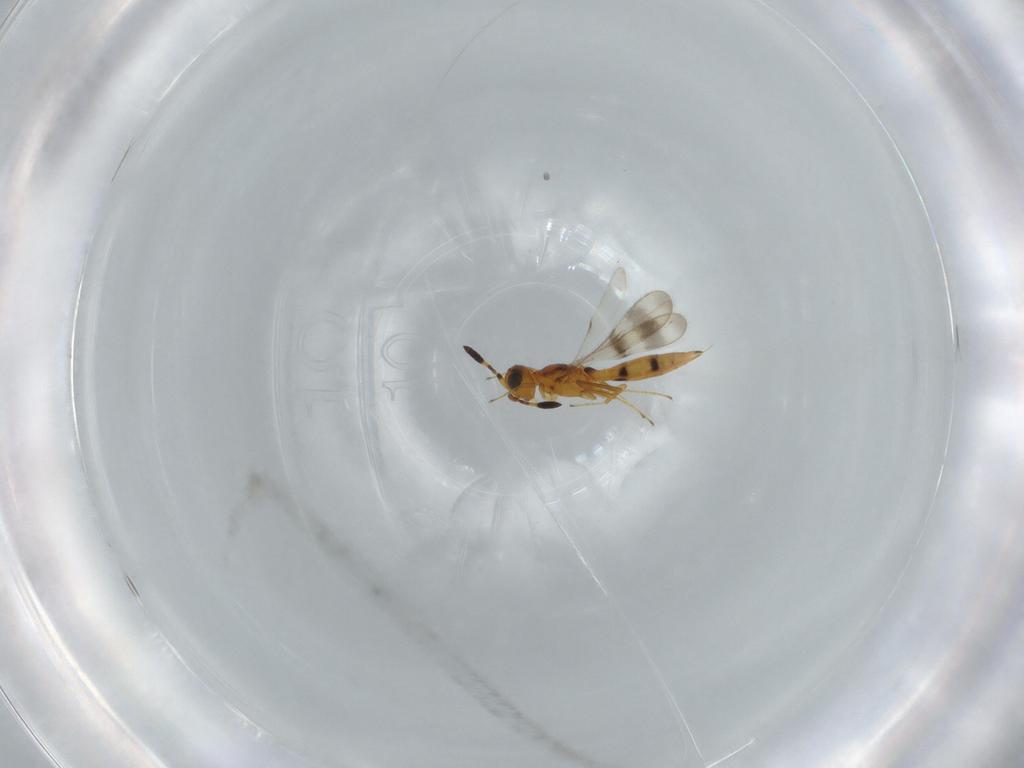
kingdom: Animalia
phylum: Arthropoda
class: Insecta
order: Hymenoptera
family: Scelionidae
